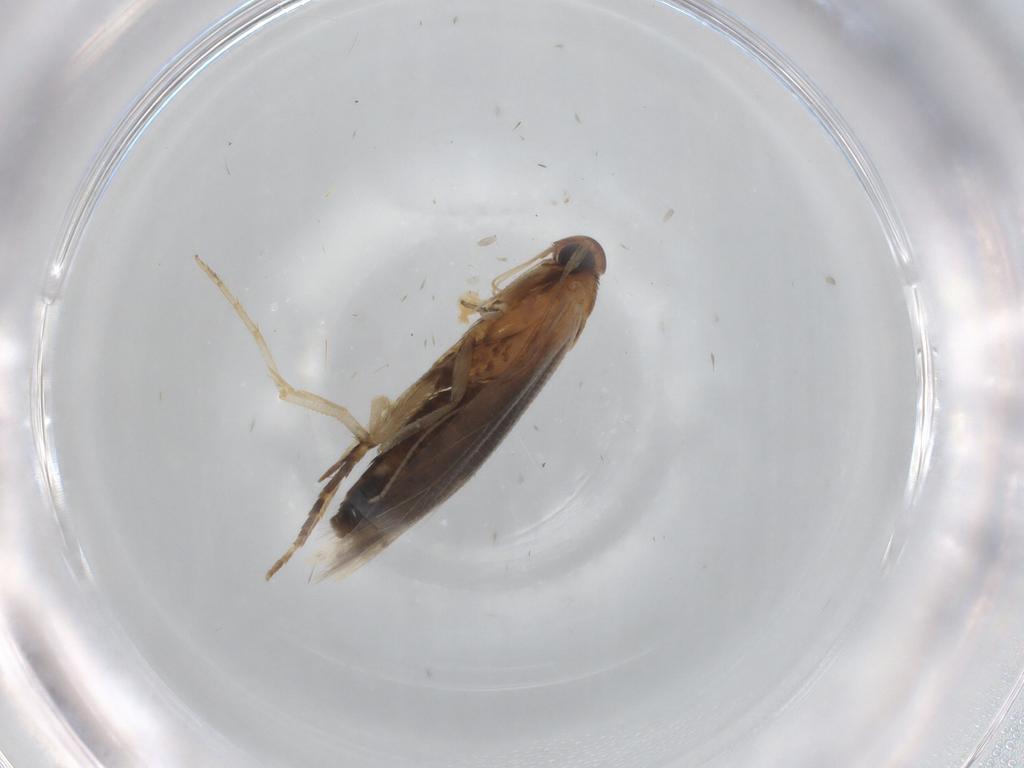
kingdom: Animalia
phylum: Arthropoda
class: Insecta
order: Lepidoptera
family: Cosmopterigidae
